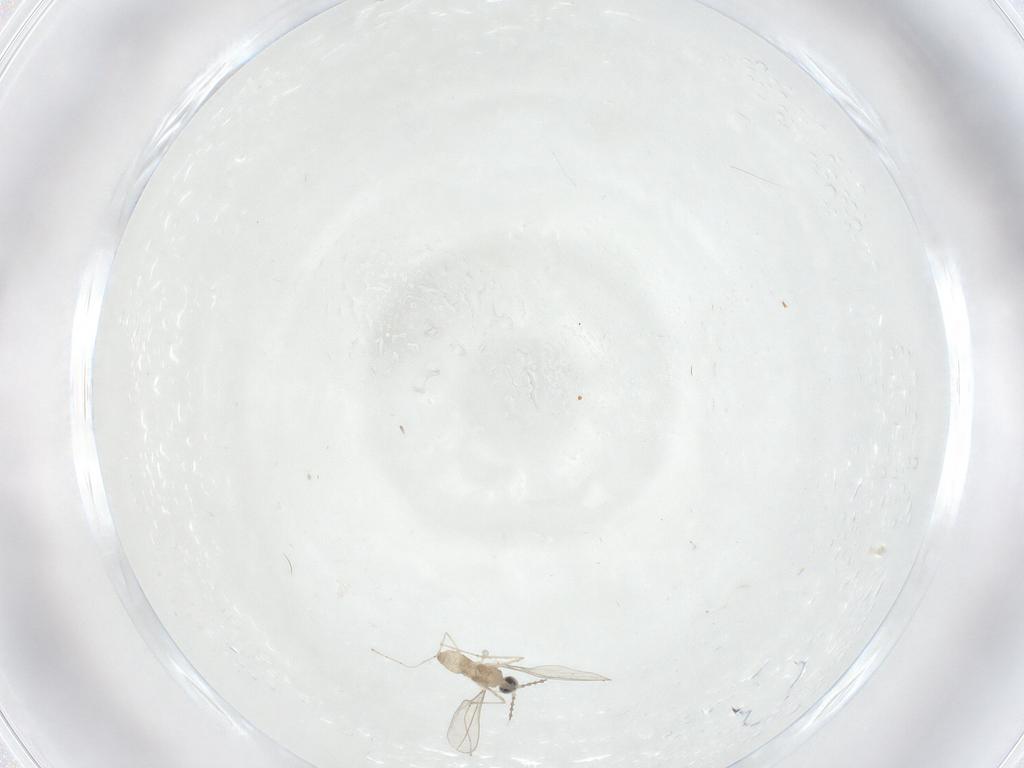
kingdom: Animalia
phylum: Arthropoda
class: Insecta
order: Diptera
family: Cecidomyiidae
